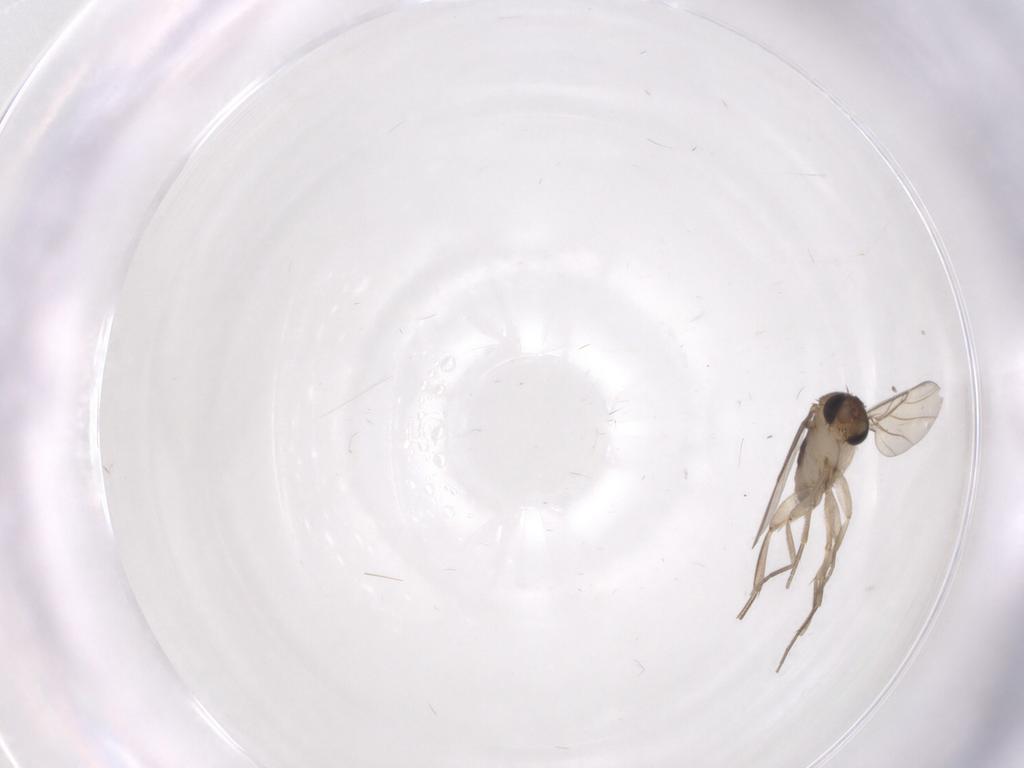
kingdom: Animalia
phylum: Arthropoda
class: Insecta
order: Diptera
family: Phoridae
